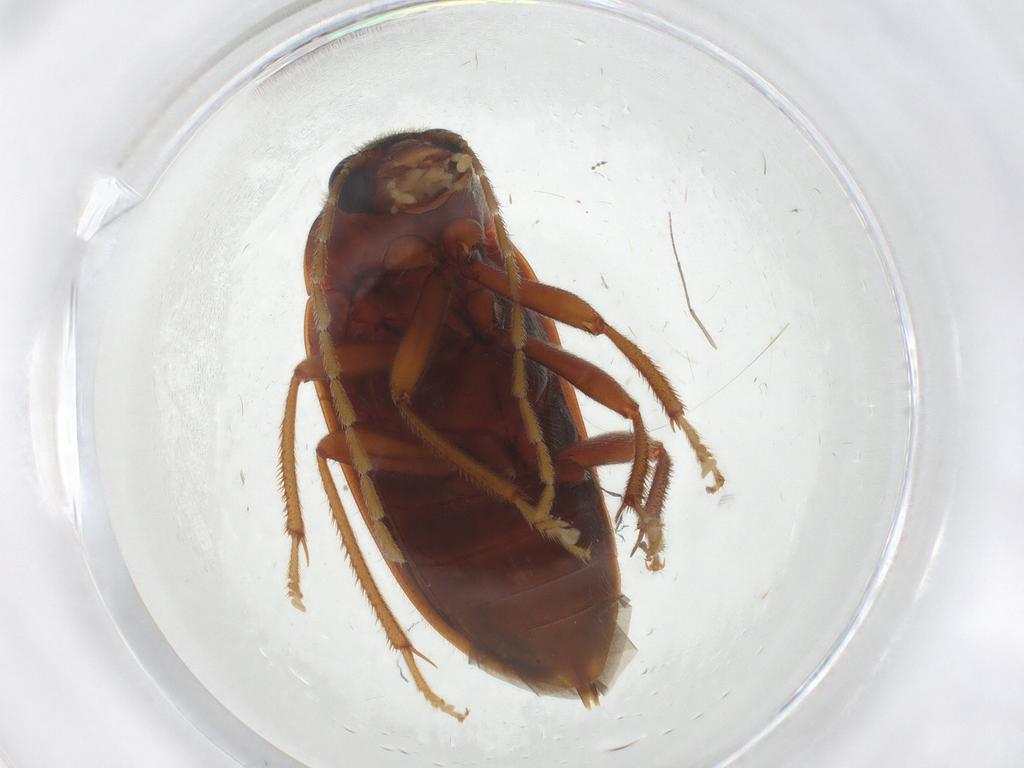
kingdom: Animalia
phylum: Arthropoda
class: Insecta
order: Coleoptera
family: Ptilodactylidae
